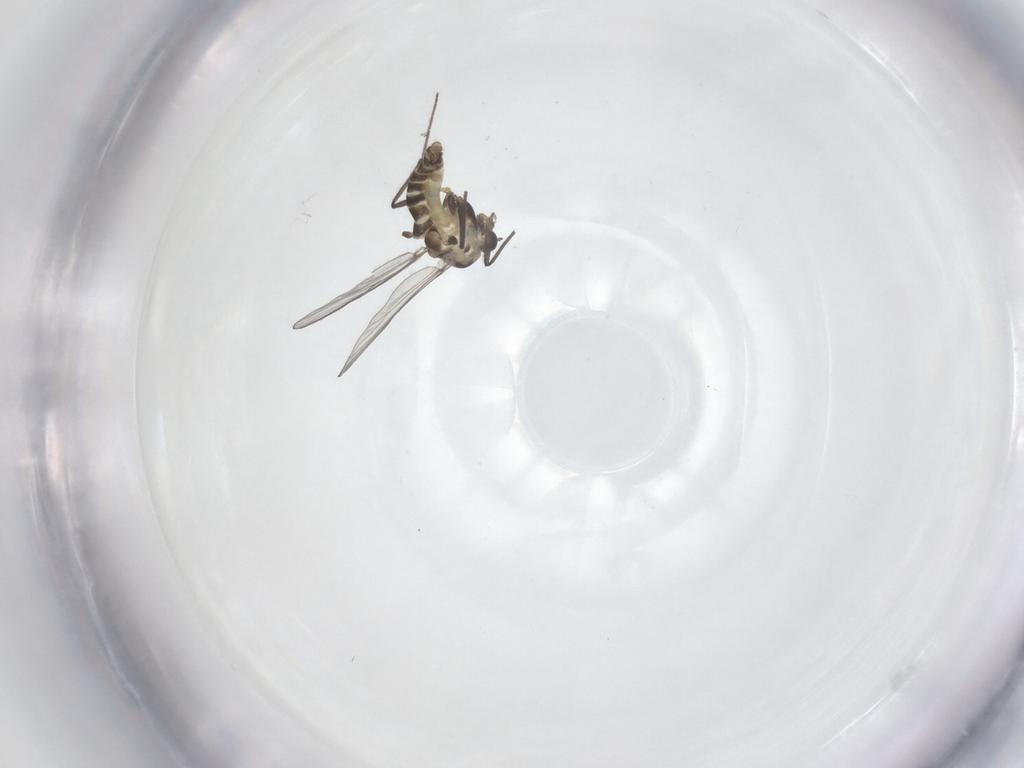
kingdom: Animalia
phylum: Arthropoda
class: Insecta
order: Diptera
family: Chironomidae
